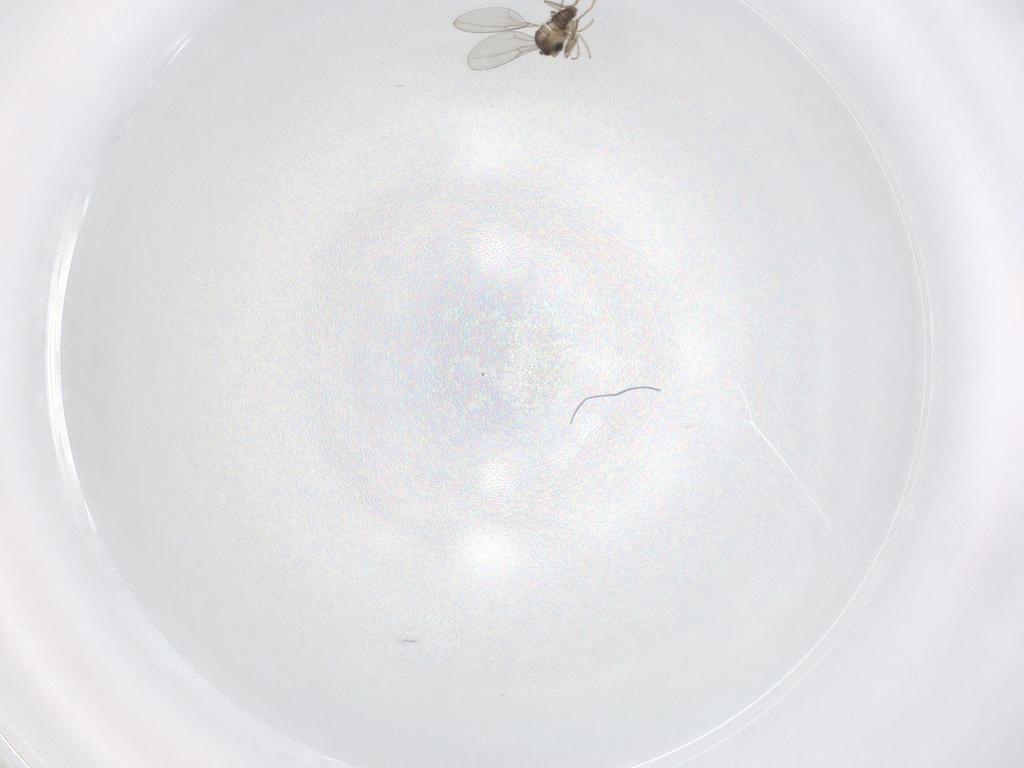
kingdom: Animalia
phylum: Arthropoda
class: Insecta
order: Diptera
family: Cecidomyiidae
